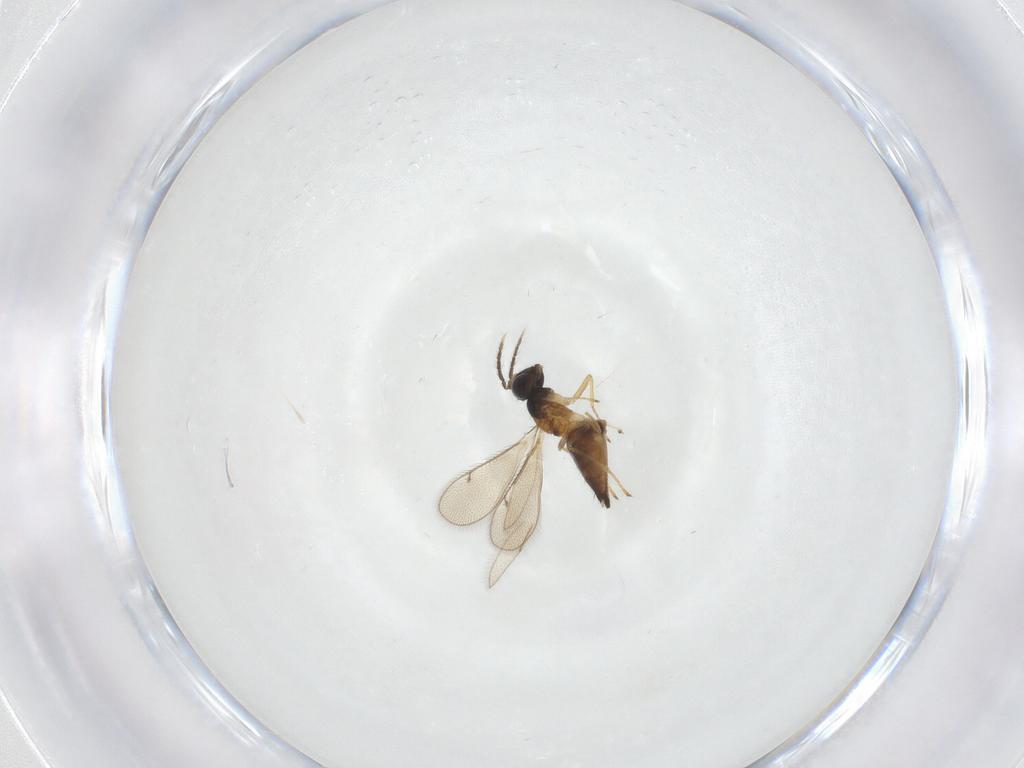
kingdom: Animalia
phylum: Arthropoda
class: Insecta
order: Hymenoptera
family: Eulophidae
